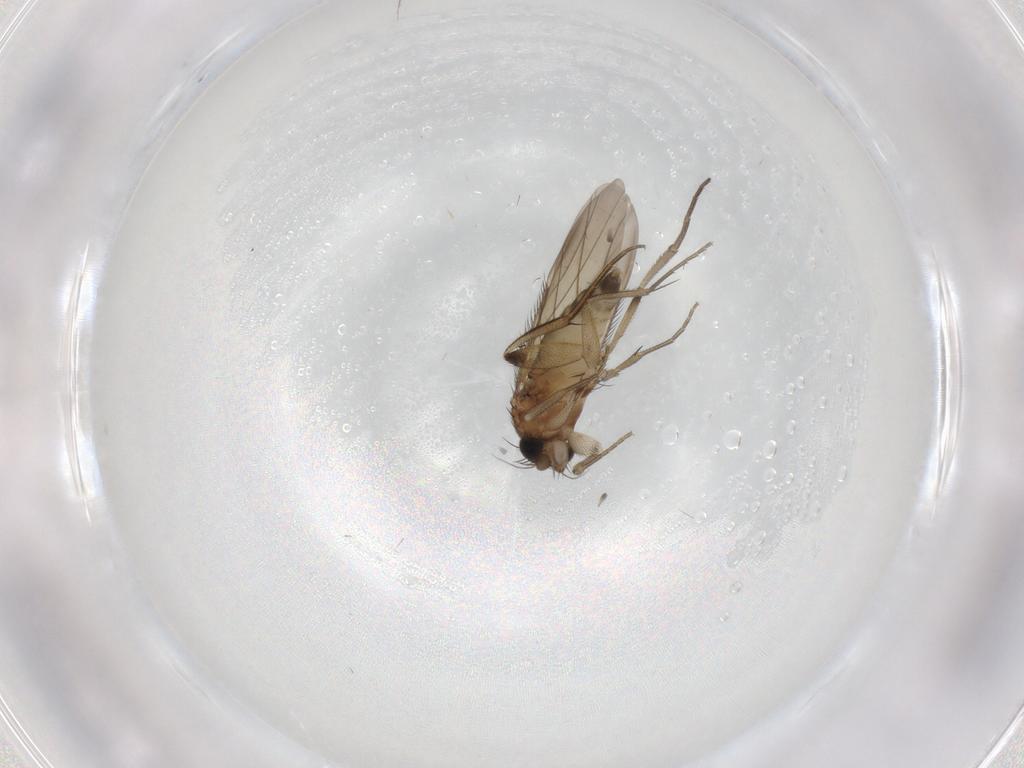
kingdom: Animalia
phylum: Arthropoda
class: Insecta
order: Diptera
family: Phoridae
